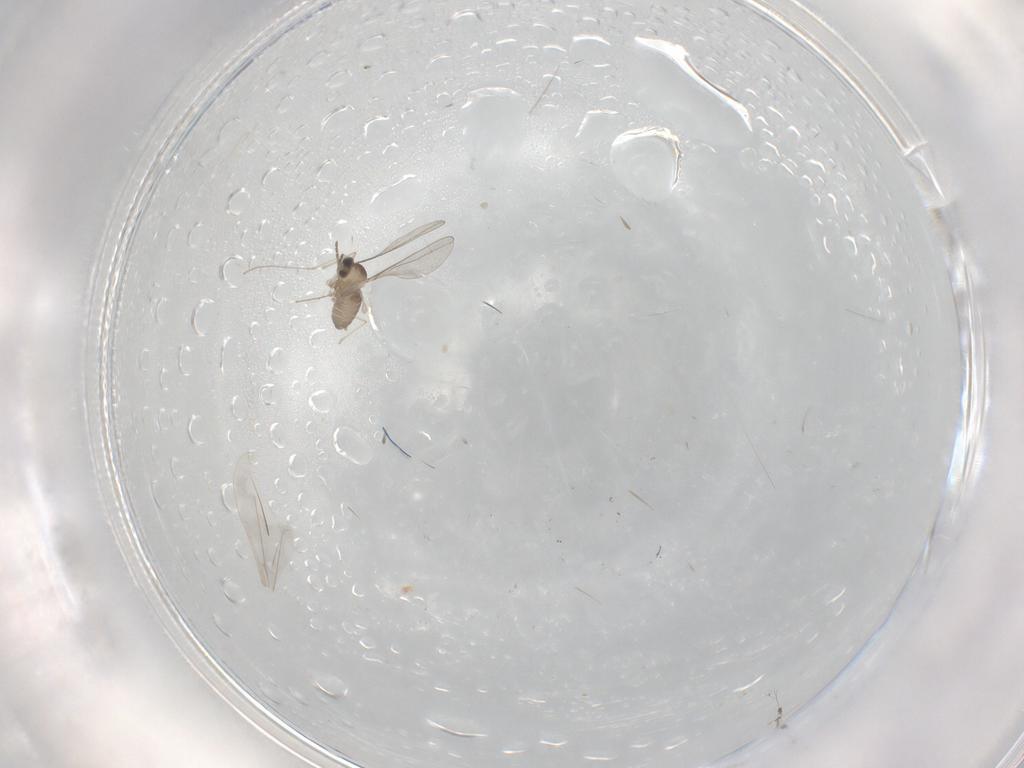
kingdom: Animalia
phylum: Arthropoda
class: Insecta
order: Diptera
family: Cecidomyiidae
